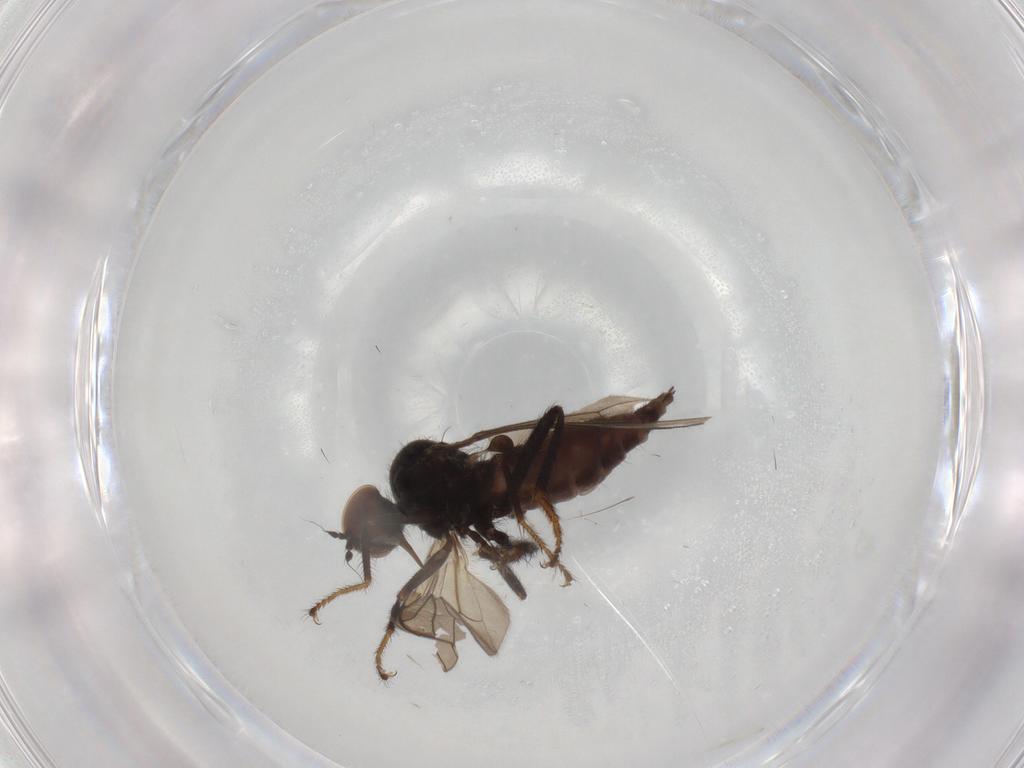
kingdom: Animalia
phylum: Arthropoda
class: Insecta
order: Diptera
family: Hybotidae
